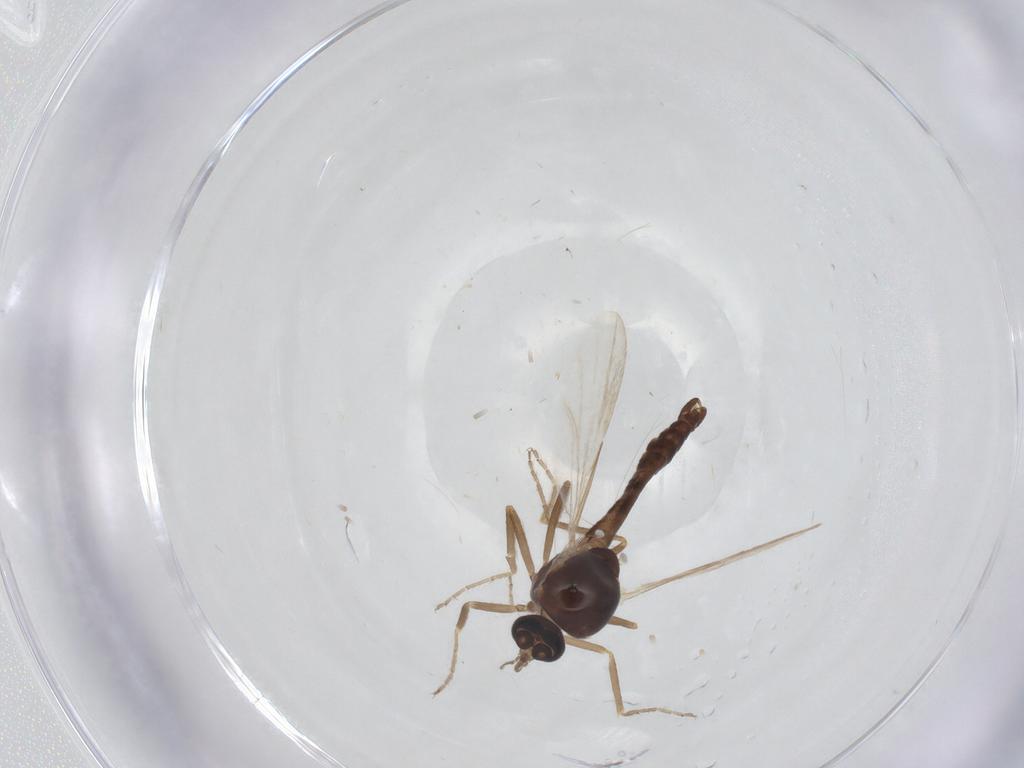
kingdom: Animalia
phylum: Arthropoda
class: Insecta
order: Diptera
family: Ceratopogonidae
